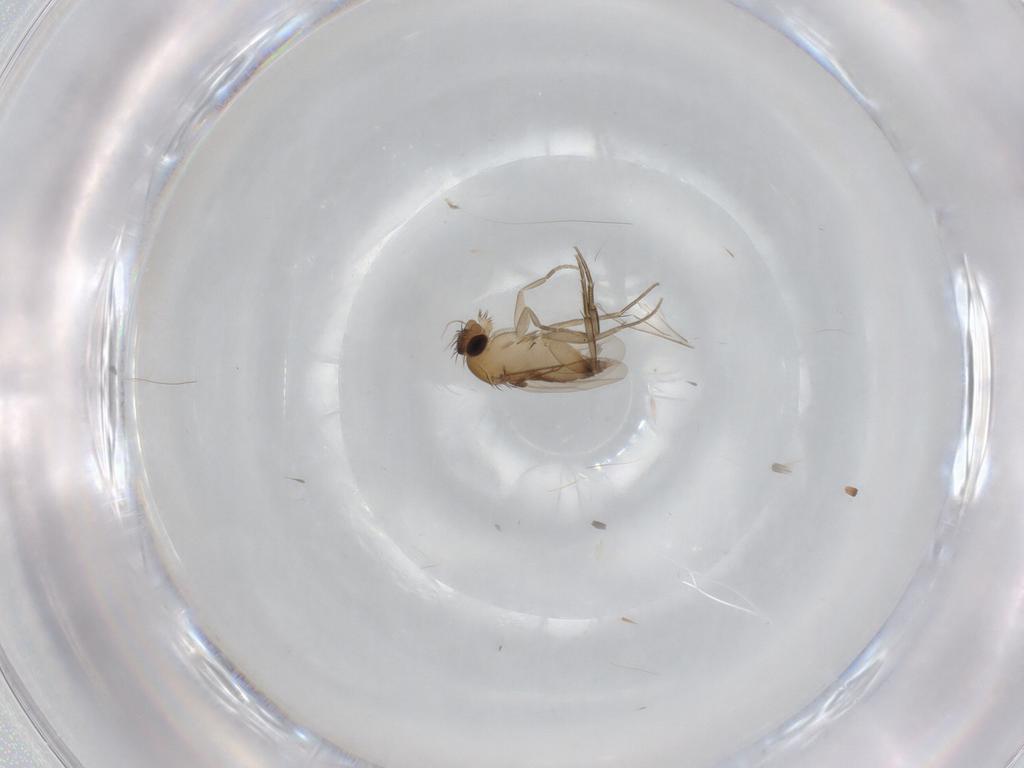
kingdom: Animalia
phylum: Arthropoda
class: Insecta
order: Diptera
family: Phoridae
